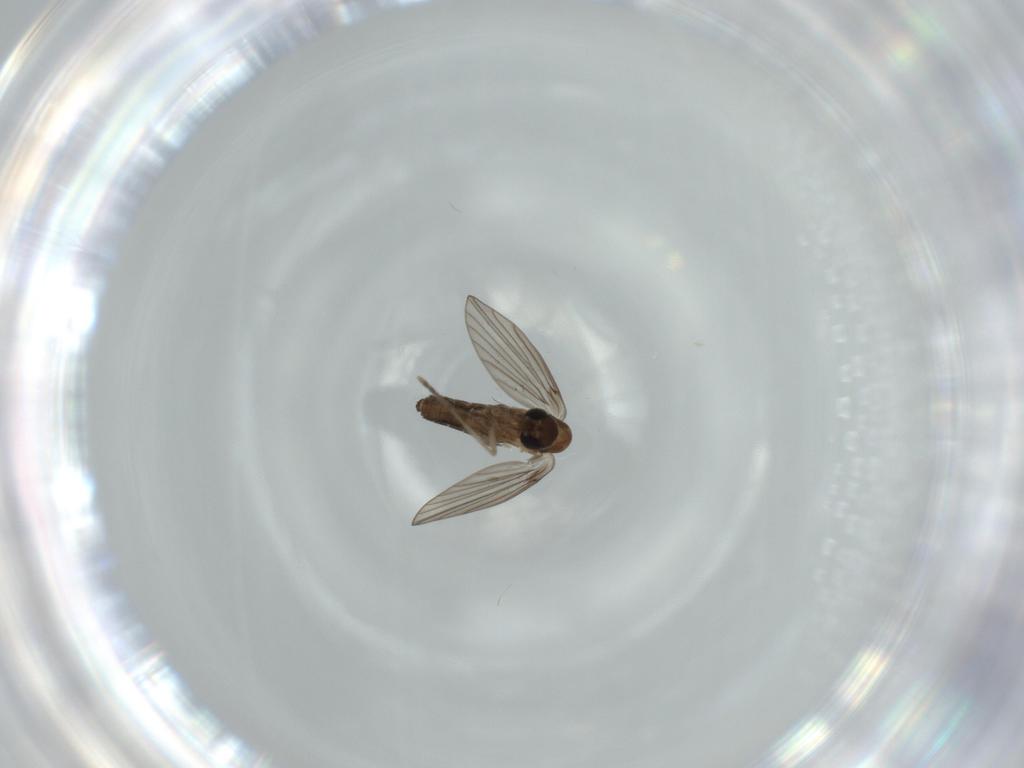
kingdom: Animalia
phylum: Arthropoda
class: Insecta
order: Diptera
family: Psychodidae
